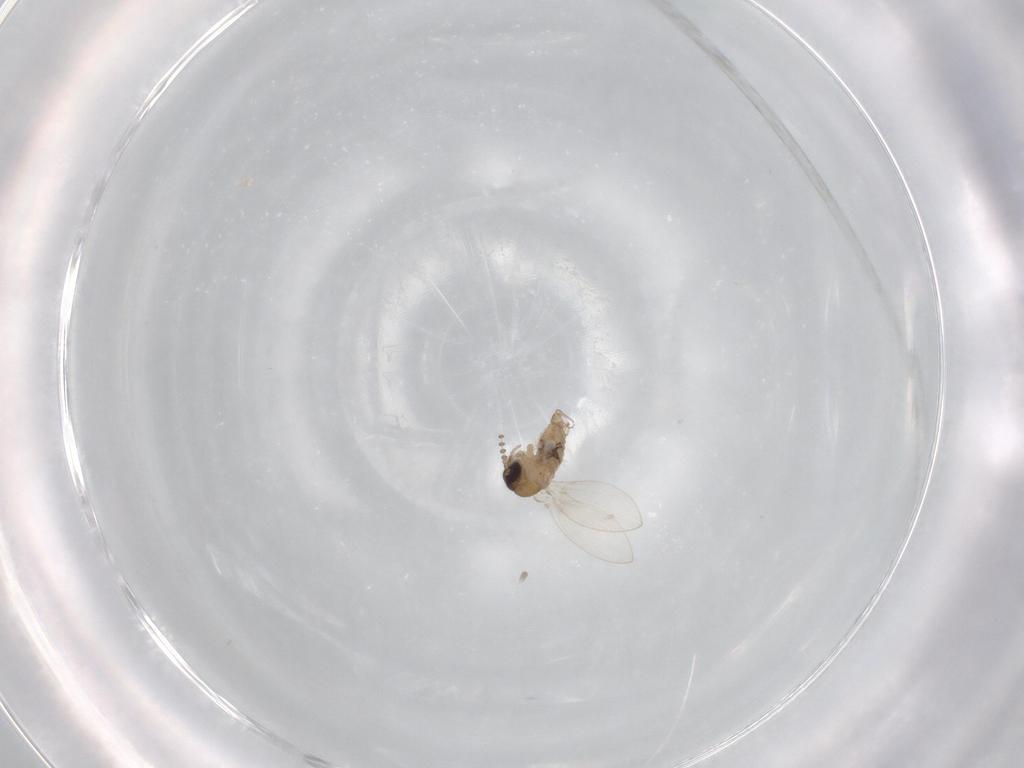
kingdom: Animalia
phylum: Arthropoda
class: Insecta
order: Diptera
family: Psychodidae
